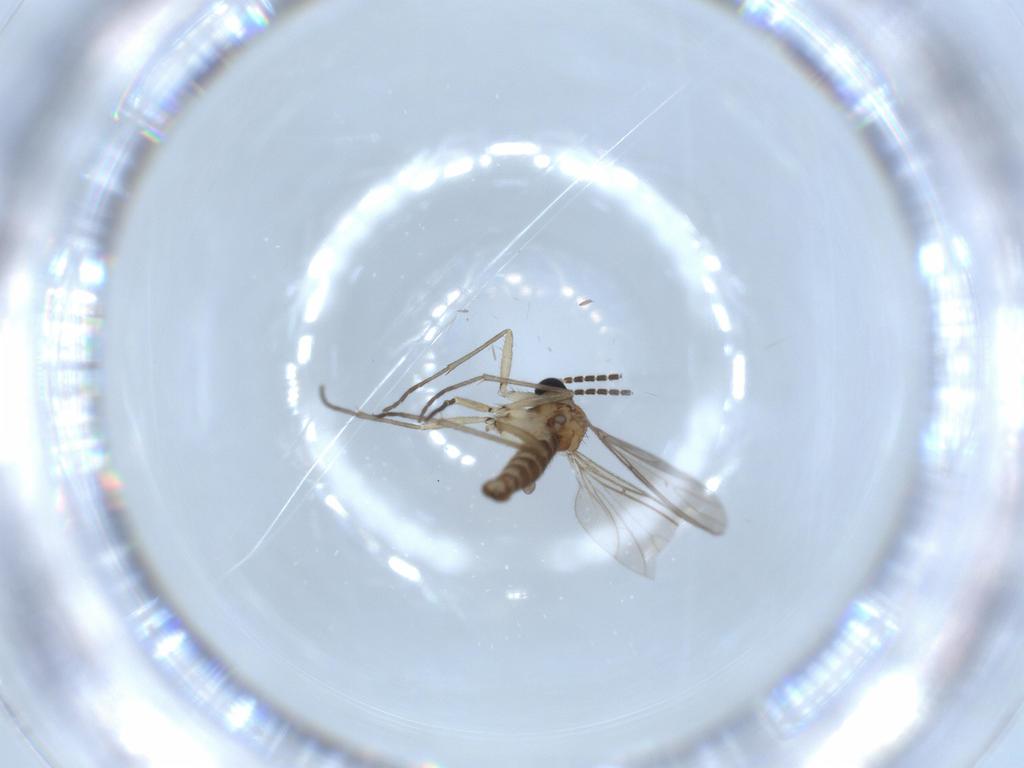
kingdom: Animalia
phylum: Arthropoda
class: Insecta
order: Diptera
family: Sciaridae
